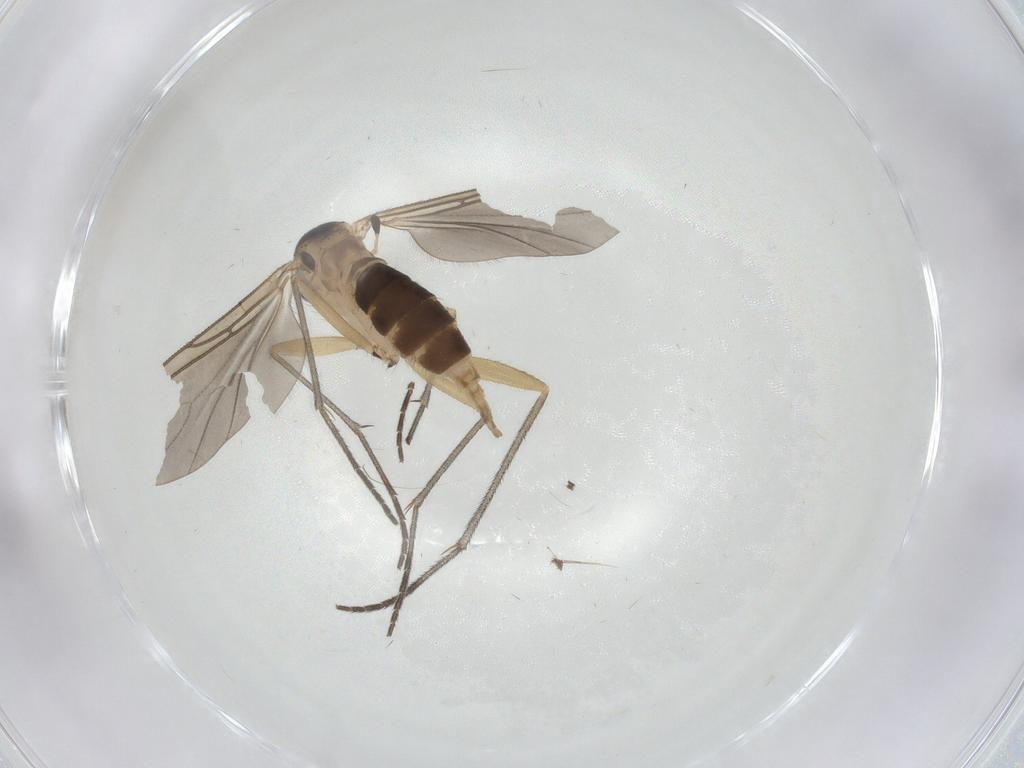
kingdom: Animalia
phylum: Arthropoda
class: Insecta
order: Diptera
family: Sciaridae
